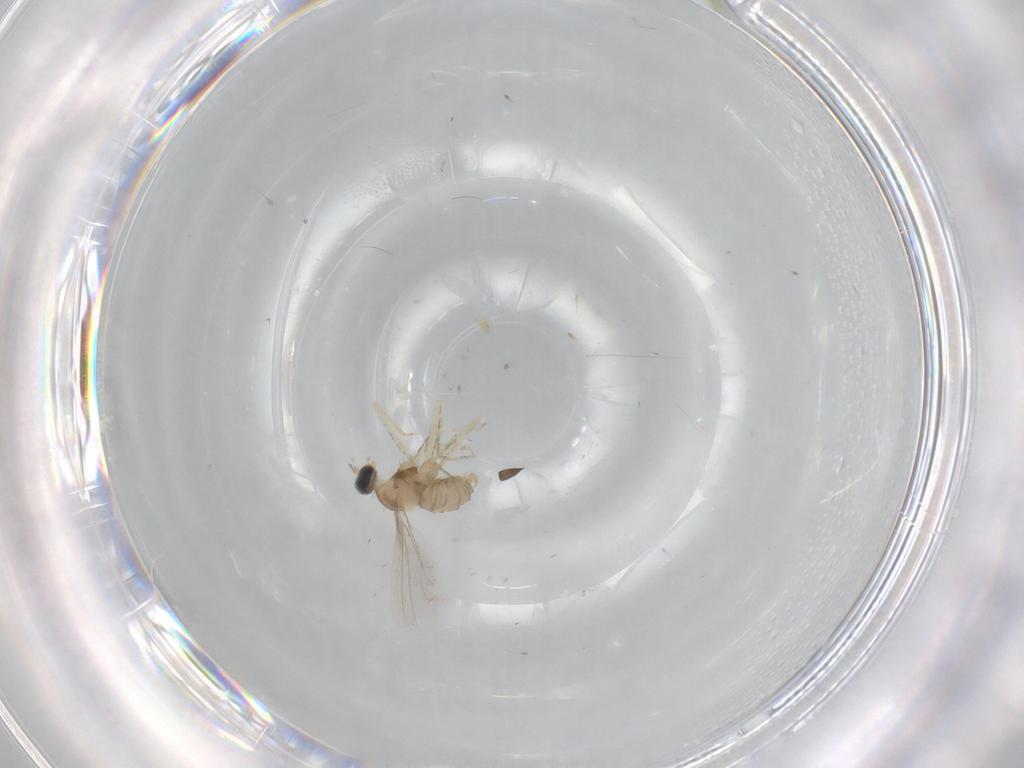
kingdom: Animalia
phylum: Arthropoda
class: Insecta
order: Diptera
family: Cecidomyiidae
